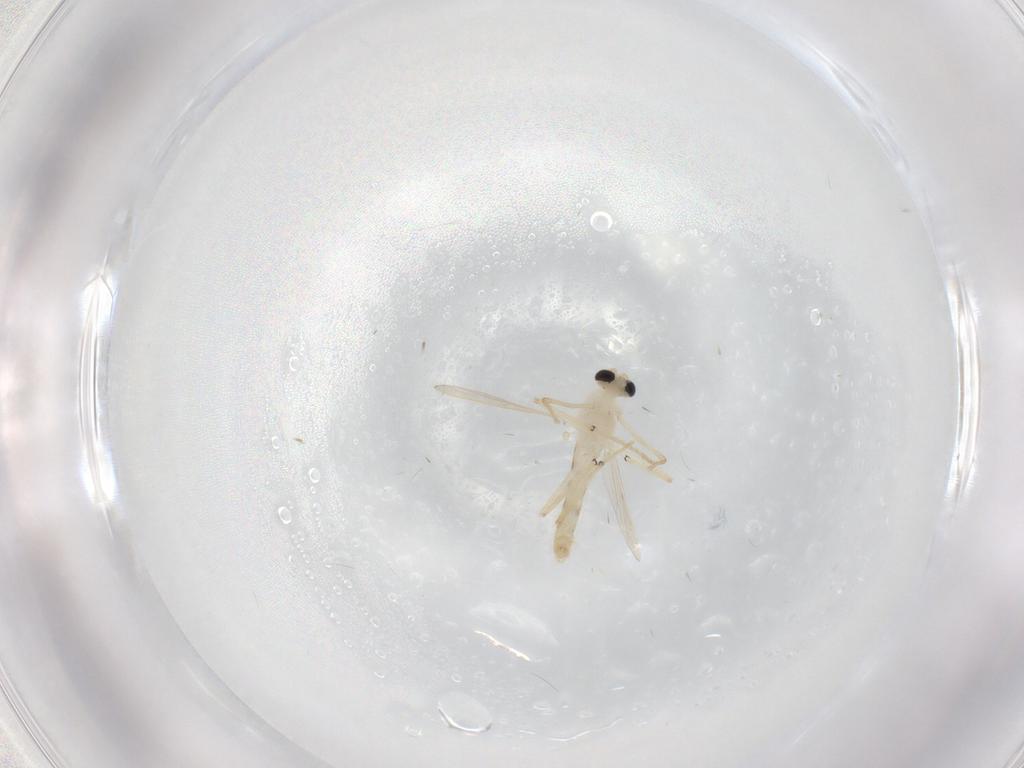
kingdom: Animalia
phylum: Arthropoda
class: Insecta
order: Diptera
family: Chironomidae
